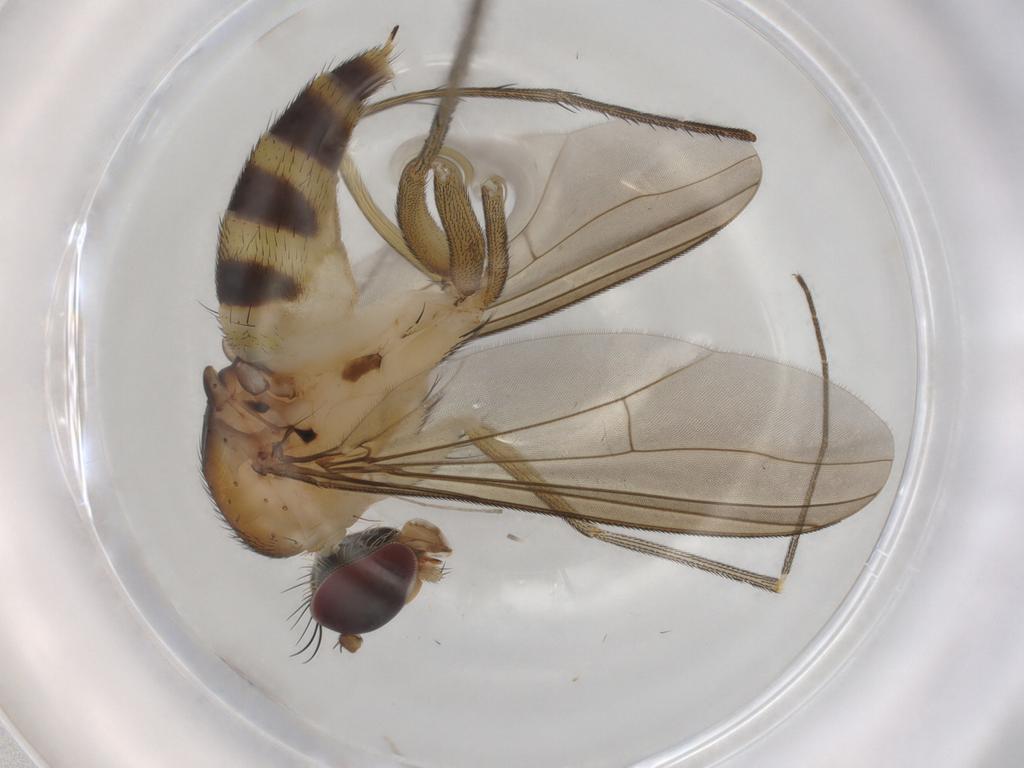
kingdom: Animalia
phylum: Arthropoda
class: Insecta
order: Diptera
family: Dolichopodidae
